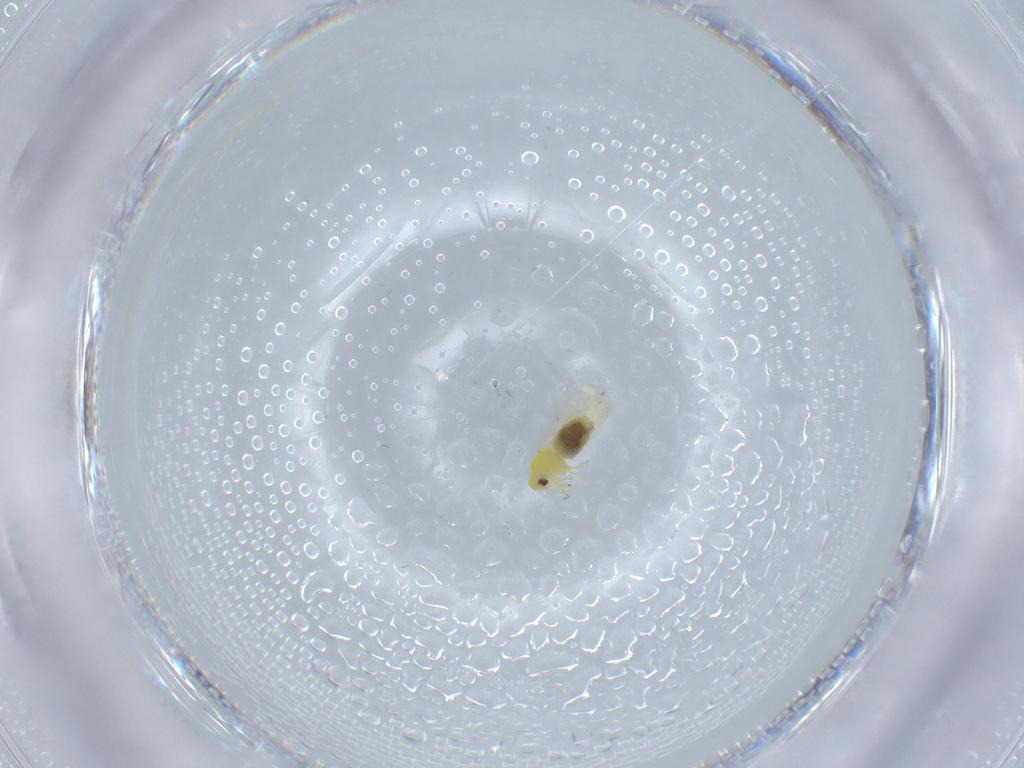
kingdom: Animalia
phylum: Arthropoda
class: Insecta
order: Hemiptera
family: Aleyrodidae
